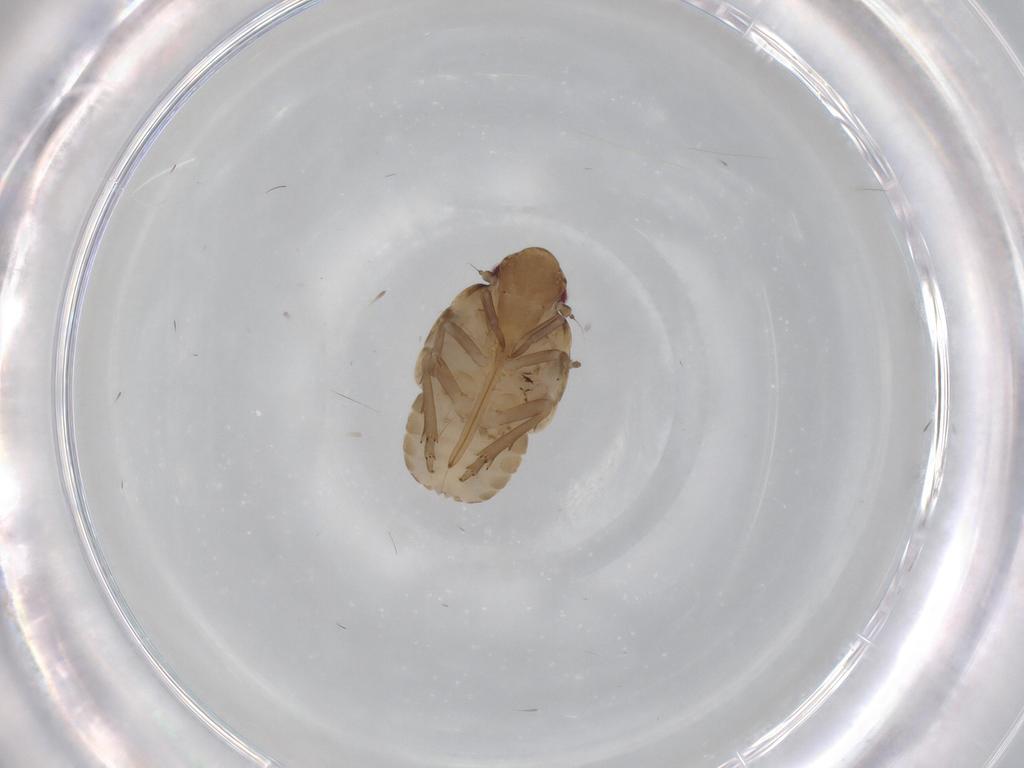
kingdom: Animalia
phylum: Arthropoda
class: Insecta
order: Hemiptera
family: Flatidae
